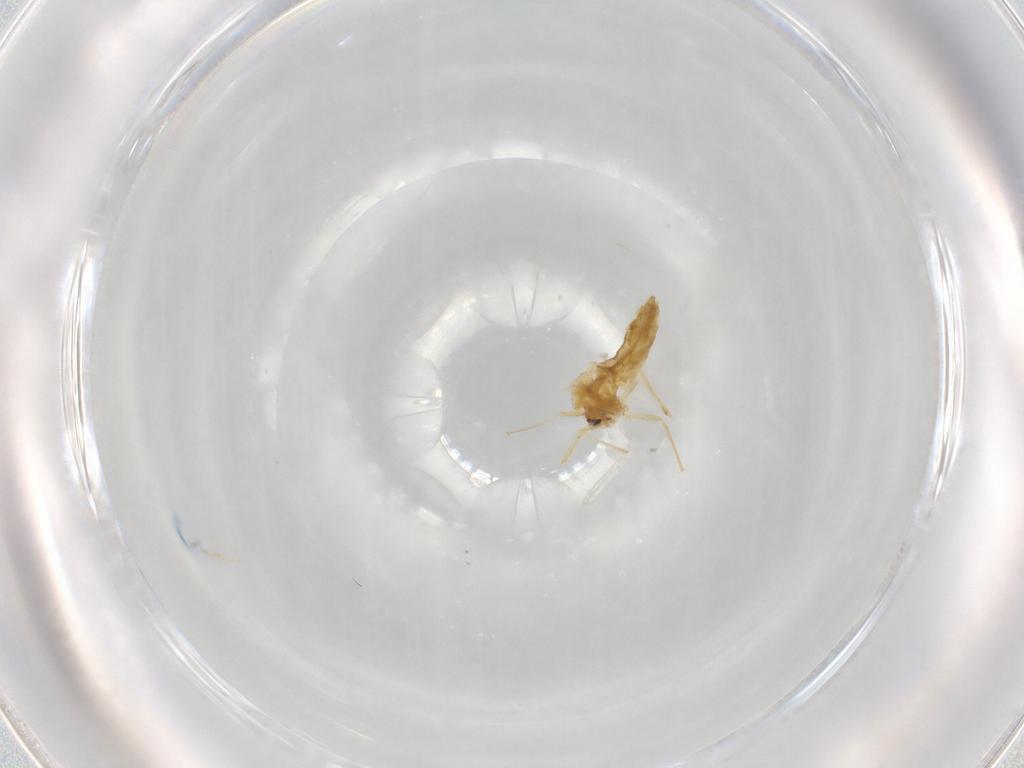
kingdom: Animalia
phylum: Arthropoda
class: Insecta
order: Diptera
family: Chironomidae
